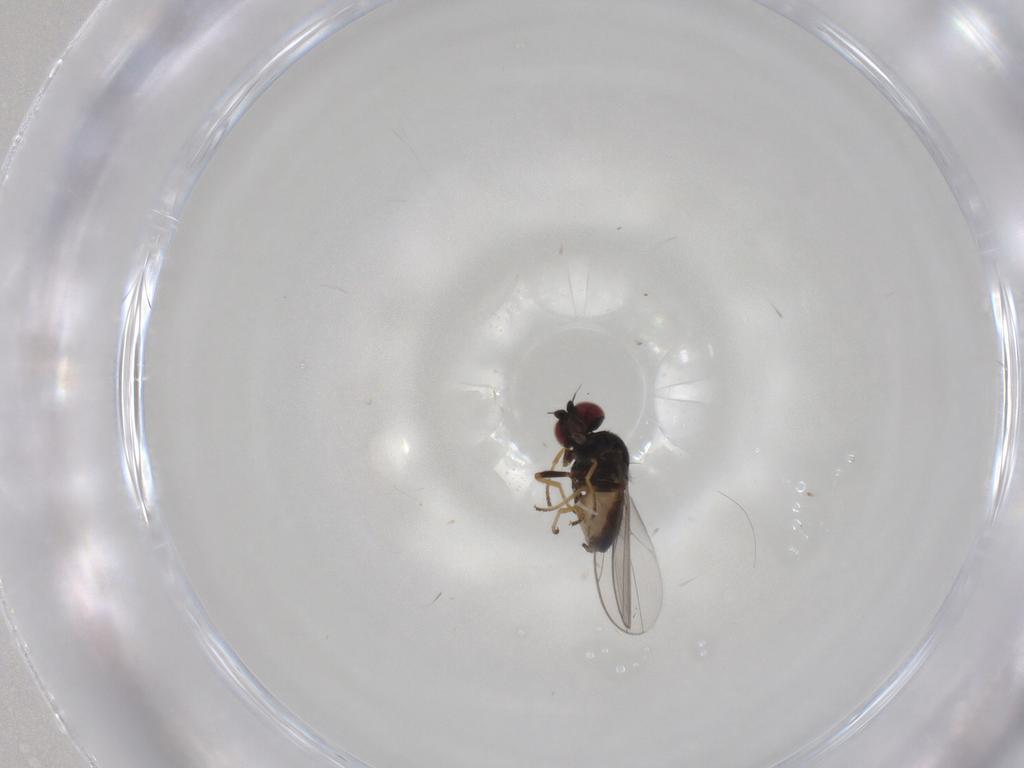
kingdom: Animalia
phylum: Arthropoda
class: Insecta
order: Diptera
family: Chloropidae
